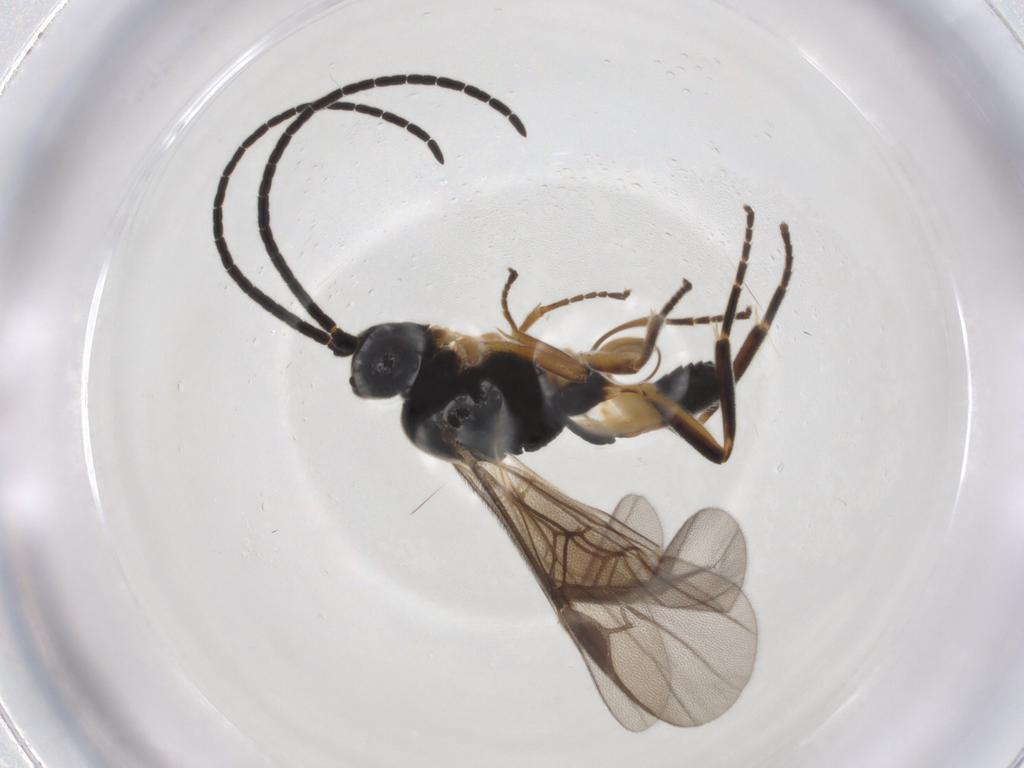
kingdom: Animalia
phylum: Arthropoda
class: Insecta
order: Hymenoptera
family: Braconidae
